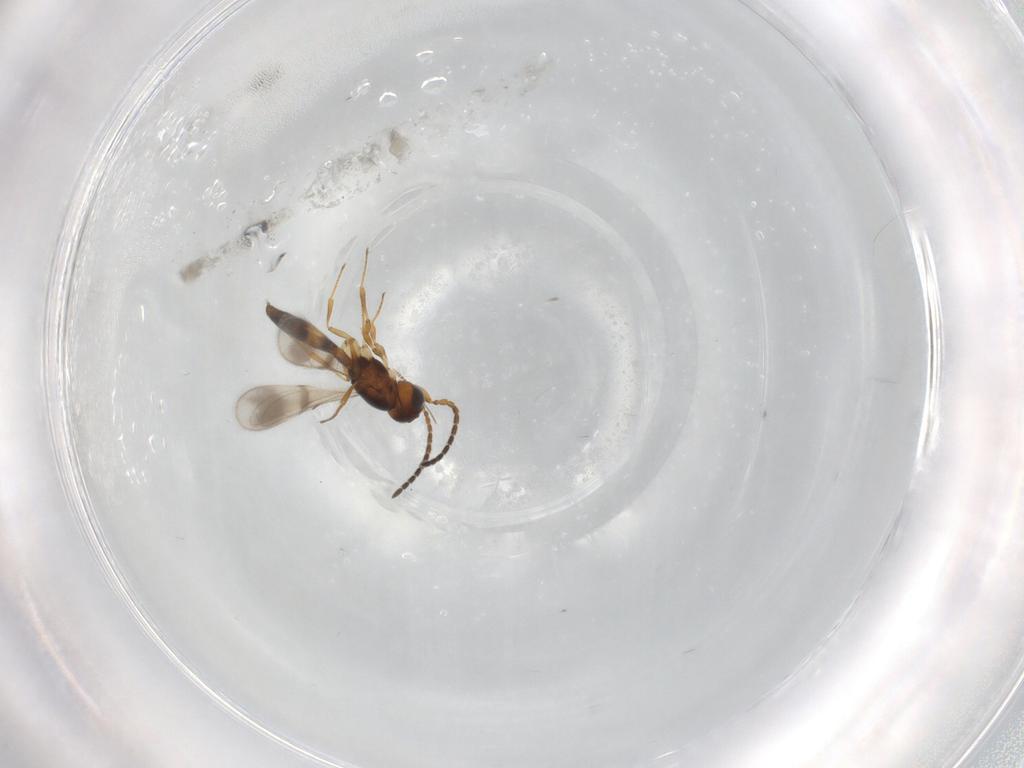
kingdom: Animalia
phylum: Arthropoda
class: Insecta
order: Hymenoptera
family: Scelionidae
